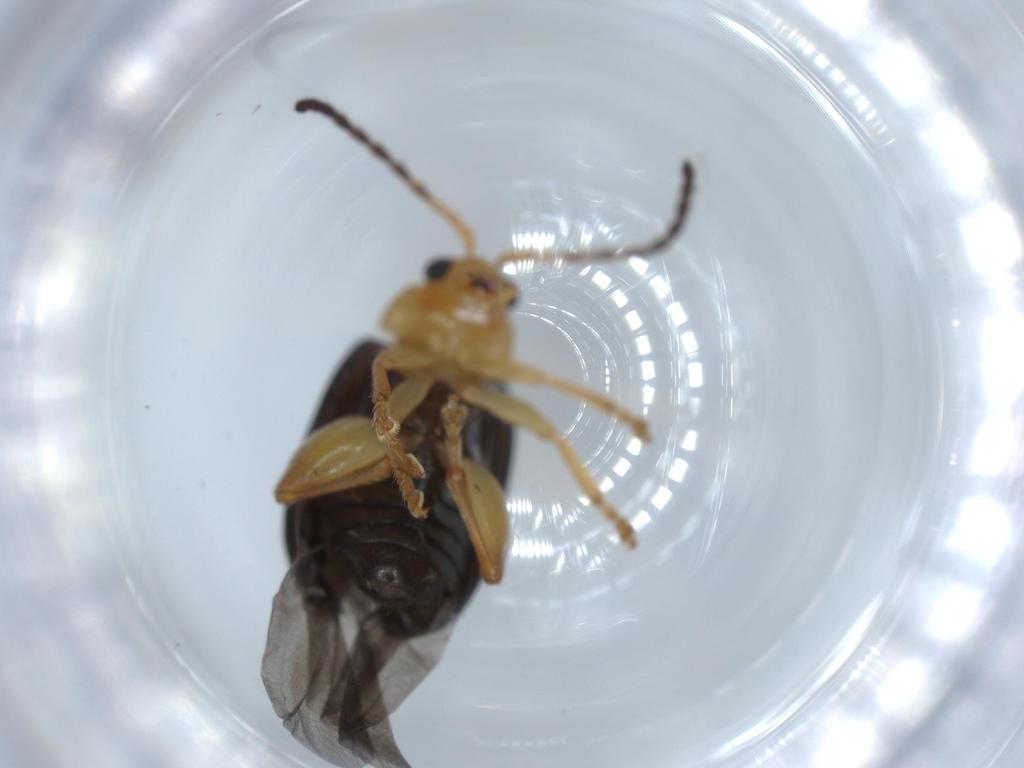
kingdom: Animalia
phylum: Arthropoda
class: Insecta
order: Coleoptera
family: Chrysomelidae
